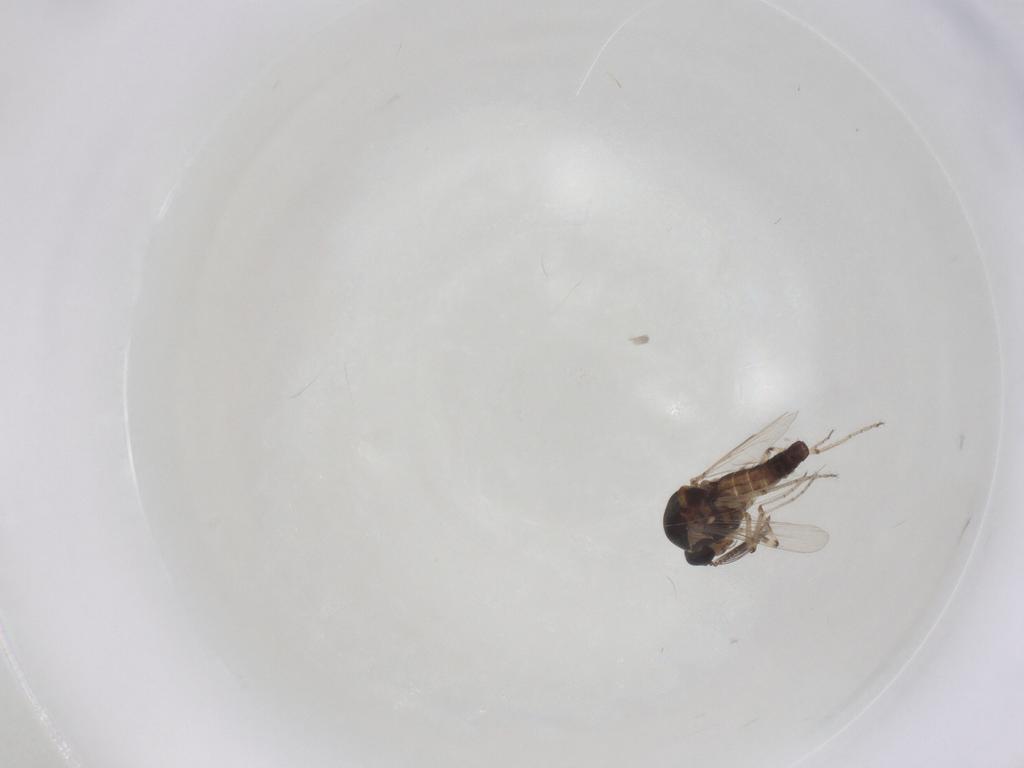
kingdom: Animalia
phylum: Arthropoda
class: Insecta
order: Diptera
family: Ceratopogonidae
